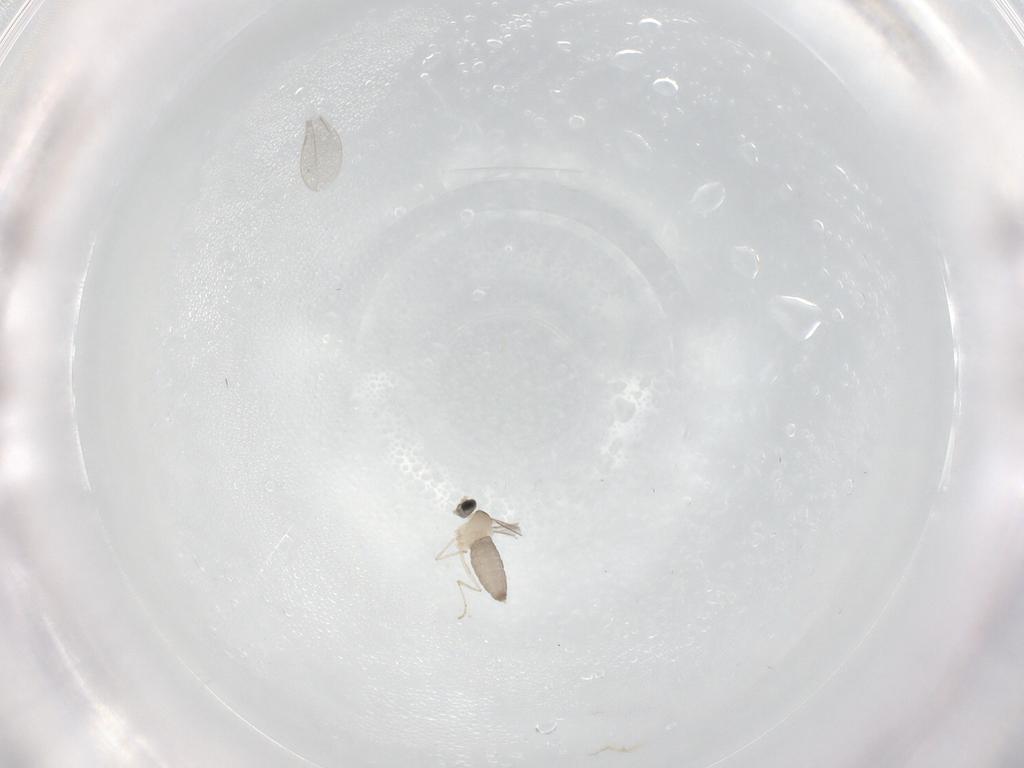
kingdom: Animalia
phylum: Arthropoda
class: Insecta
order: Diptera
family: Cecidomyiidae
